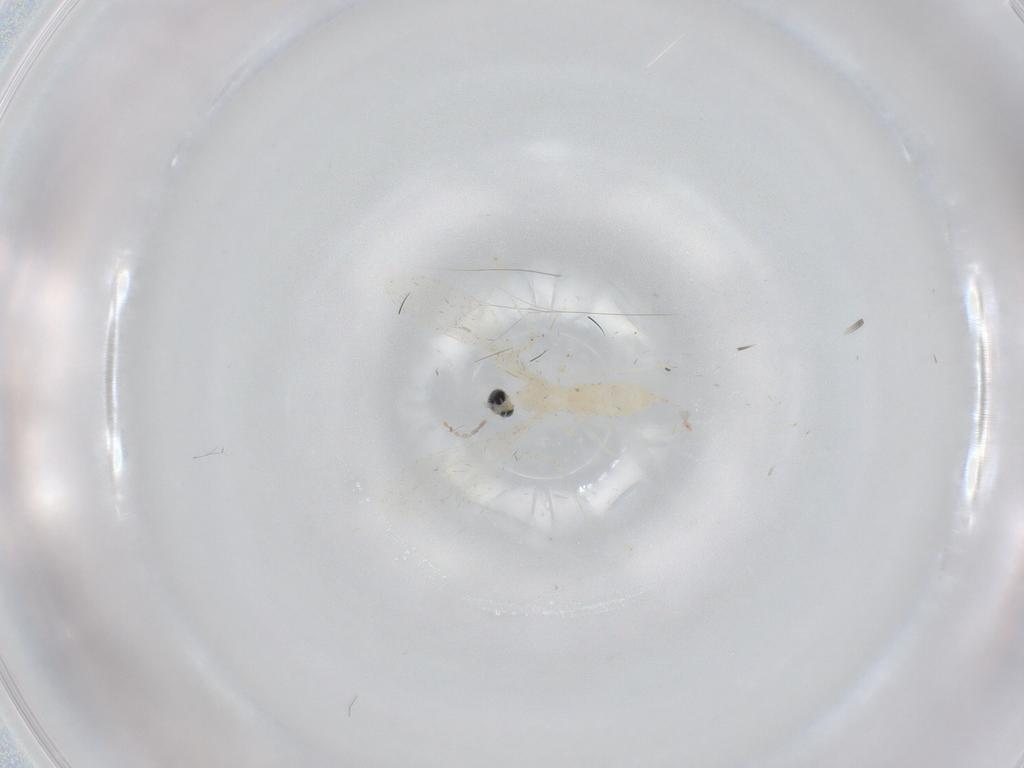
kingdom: Animalia
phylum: Arthropoda
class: Insecta
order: Diptera
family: Cecidomyiidae
